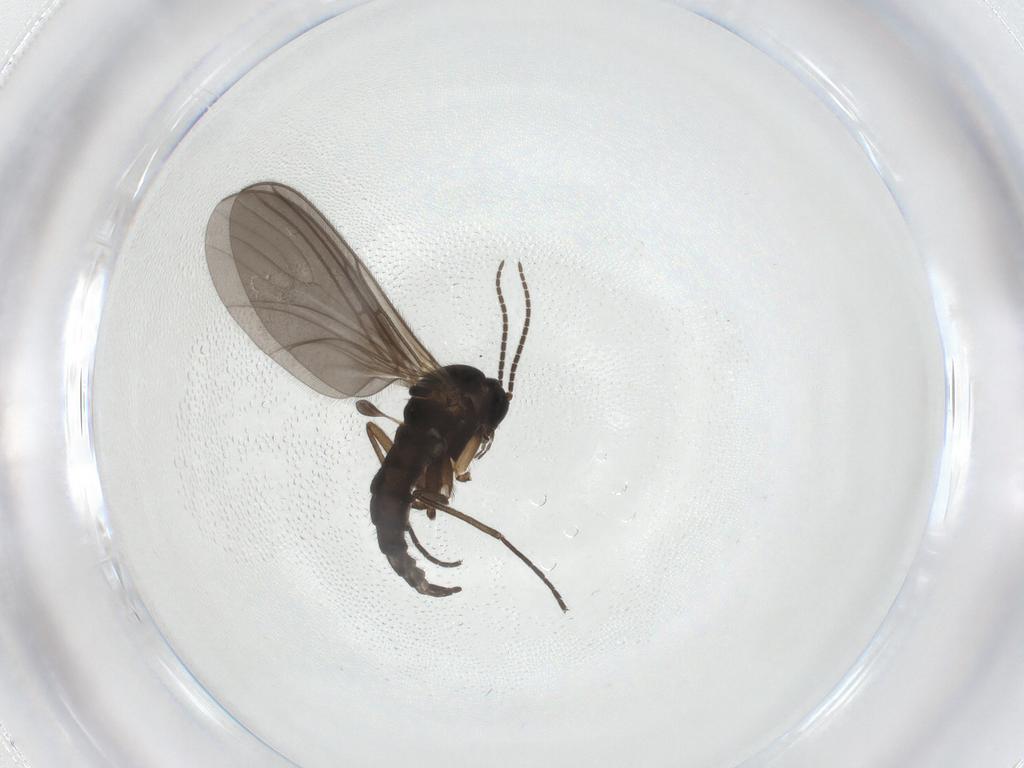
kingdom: Animalia
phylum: Arthropoda
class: Insecta
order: Diptera
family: Sciaridae
